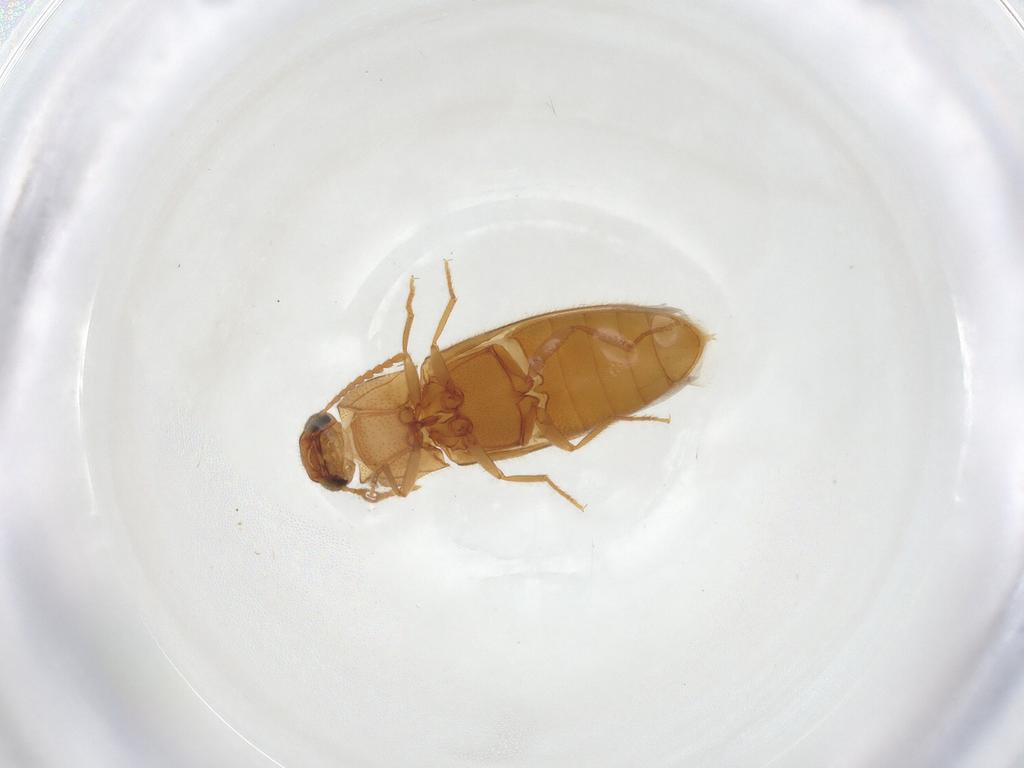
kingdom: Animalia
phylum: Arthropoda
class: Insecta
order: Coleoptera
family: Elateridae
